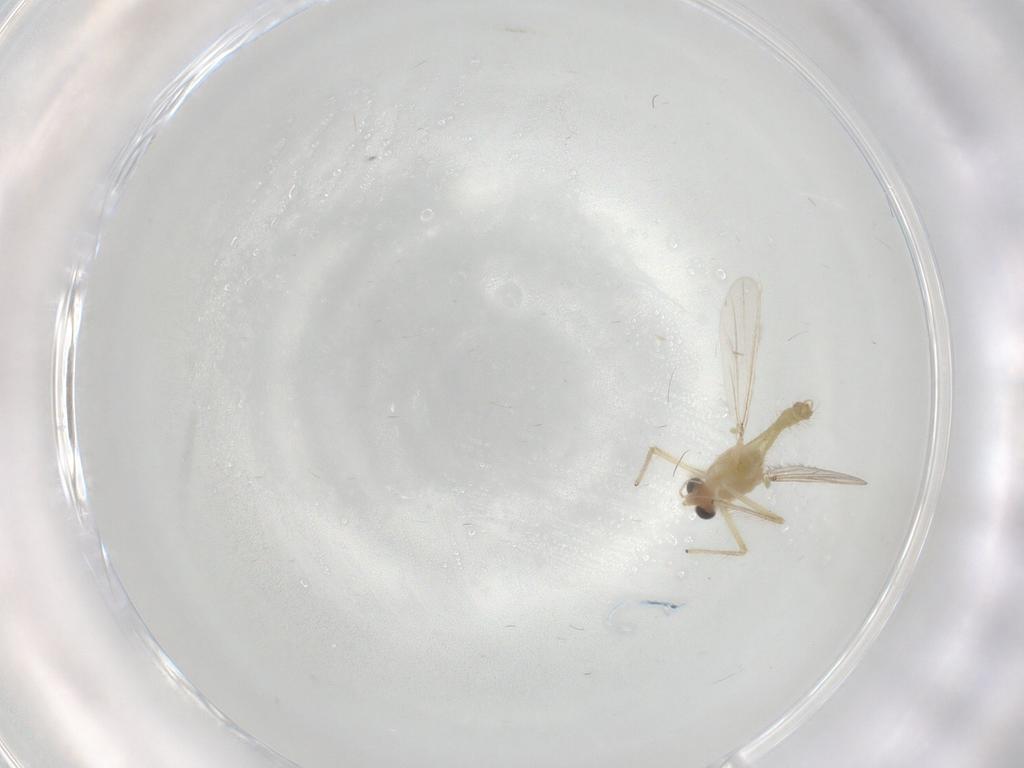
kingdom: Animalia
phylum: Arthropoda
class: Insecta
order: Diptera
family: Chironomidae
